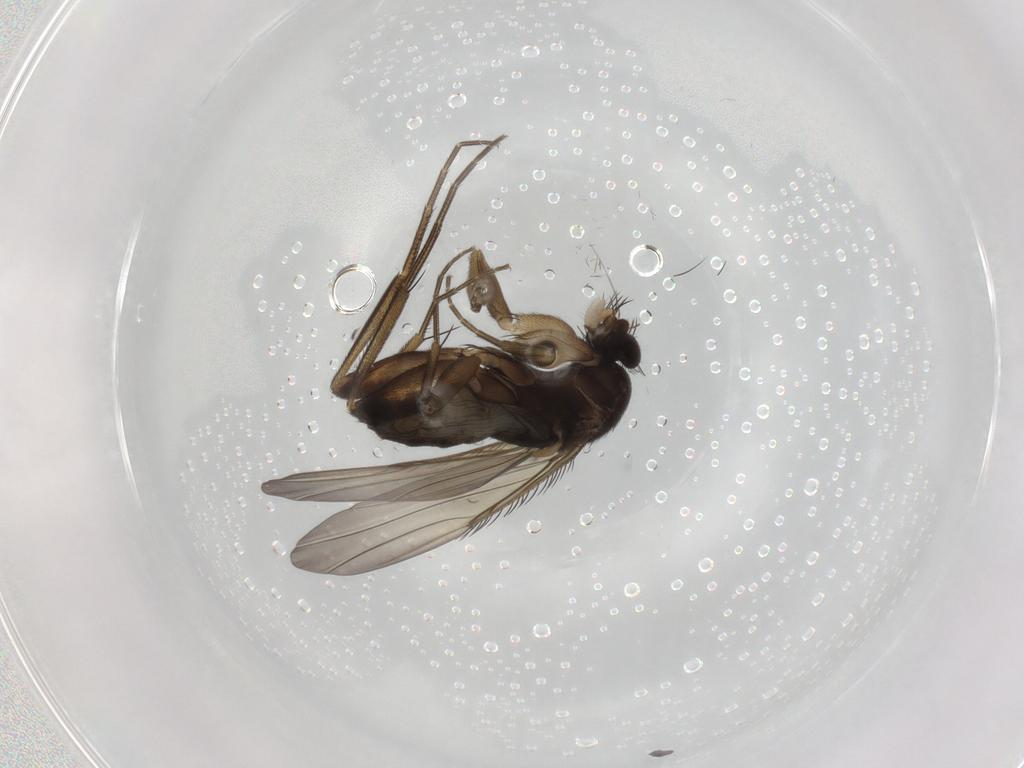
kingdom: Animalia
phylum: Arthropoda
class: Insecta
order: Diptera
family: Phoridae
